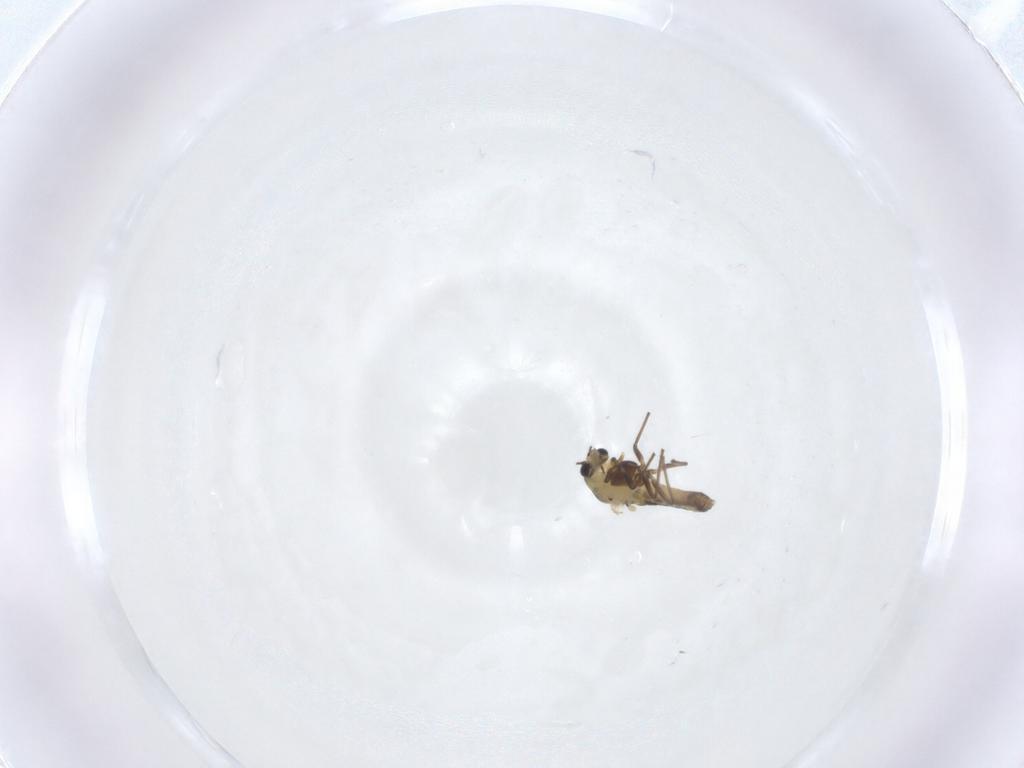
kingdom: Animalia
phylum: Arthropoda
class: Insecta
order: Diptera
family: Chironomidae
